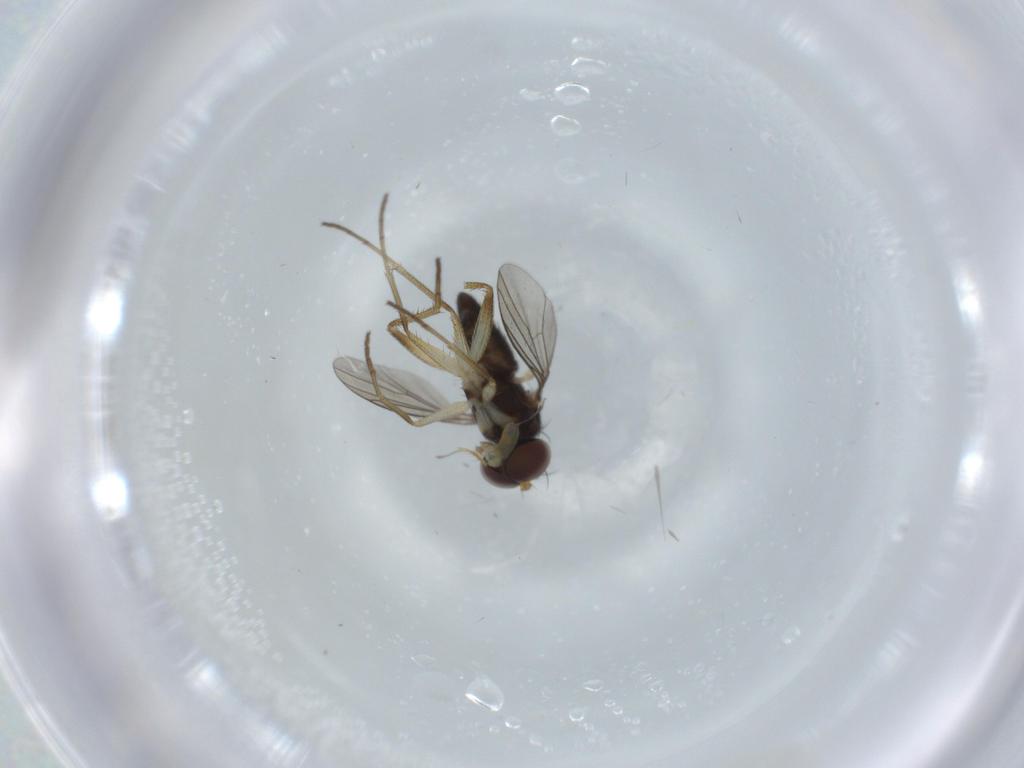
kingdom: Animalia
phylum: Arthropoda
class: Insecta
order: Diptera
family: Dolichopodidae
